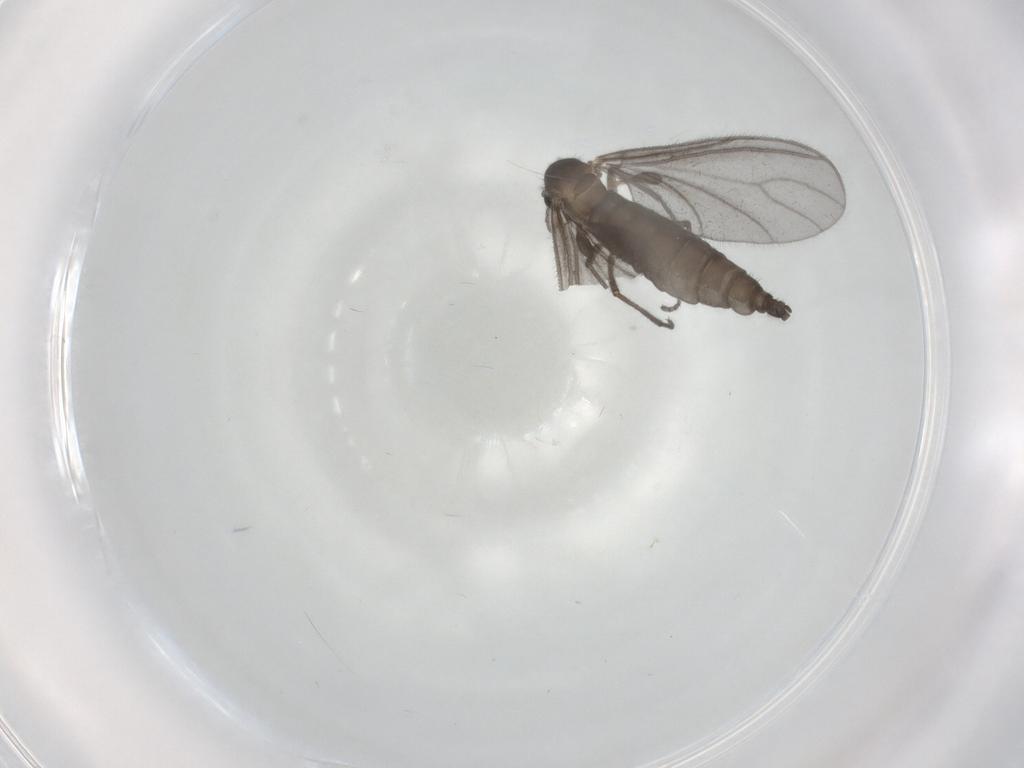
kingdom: Animalia
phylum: Arthropoda
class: Insecta
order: Diptera
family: Sciaridae
